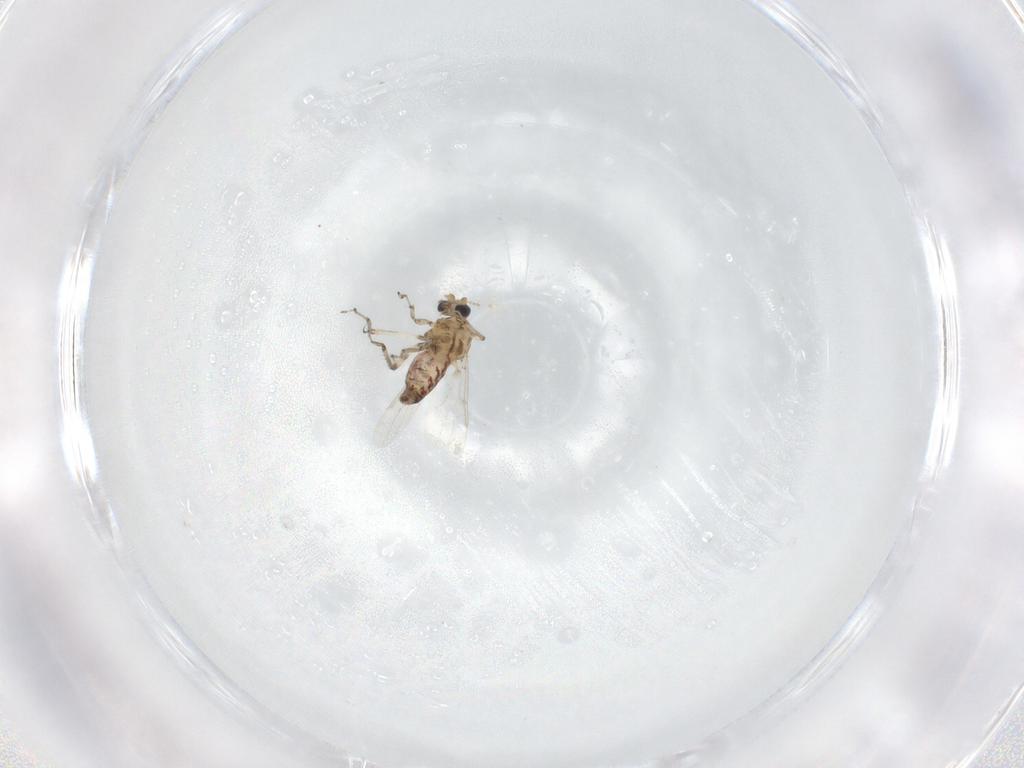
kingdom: Animalia
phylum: Arthropoda
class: Insecta
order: Diptera
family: Ceratopogonidae
